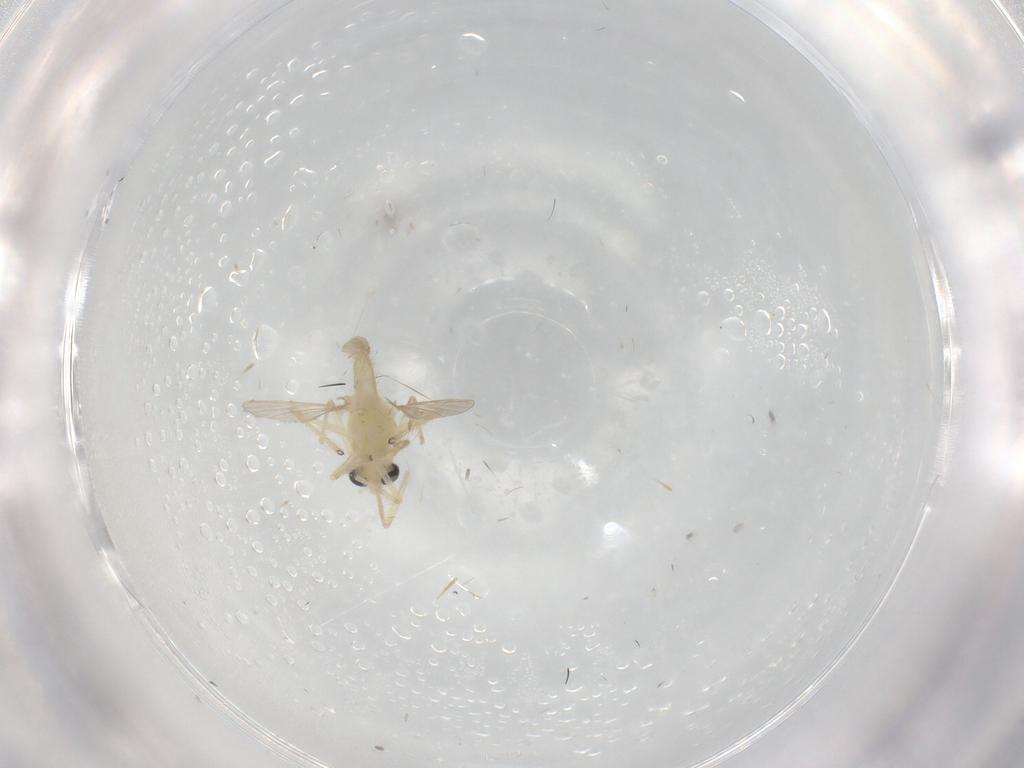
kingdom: Animalia
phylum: Arthropoda
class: Insecta
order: Diptera
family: Chironomidae
